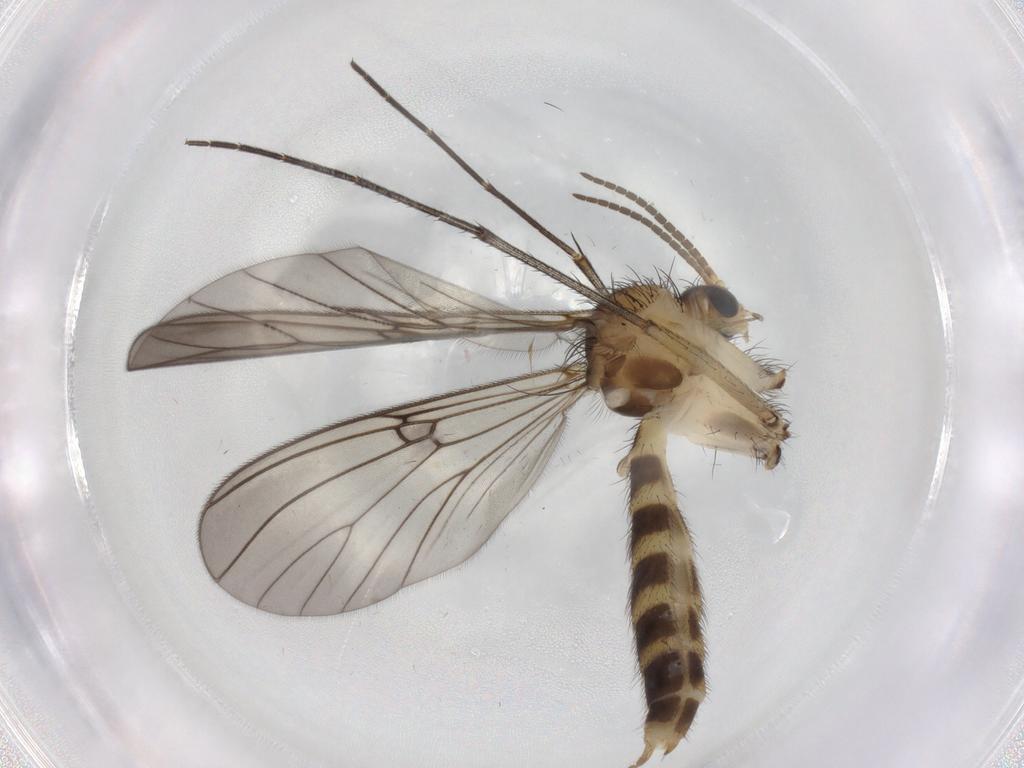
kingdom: Animalia
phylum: Arthropoda
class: Insecta
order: Diptera
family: Mycetophilidae
